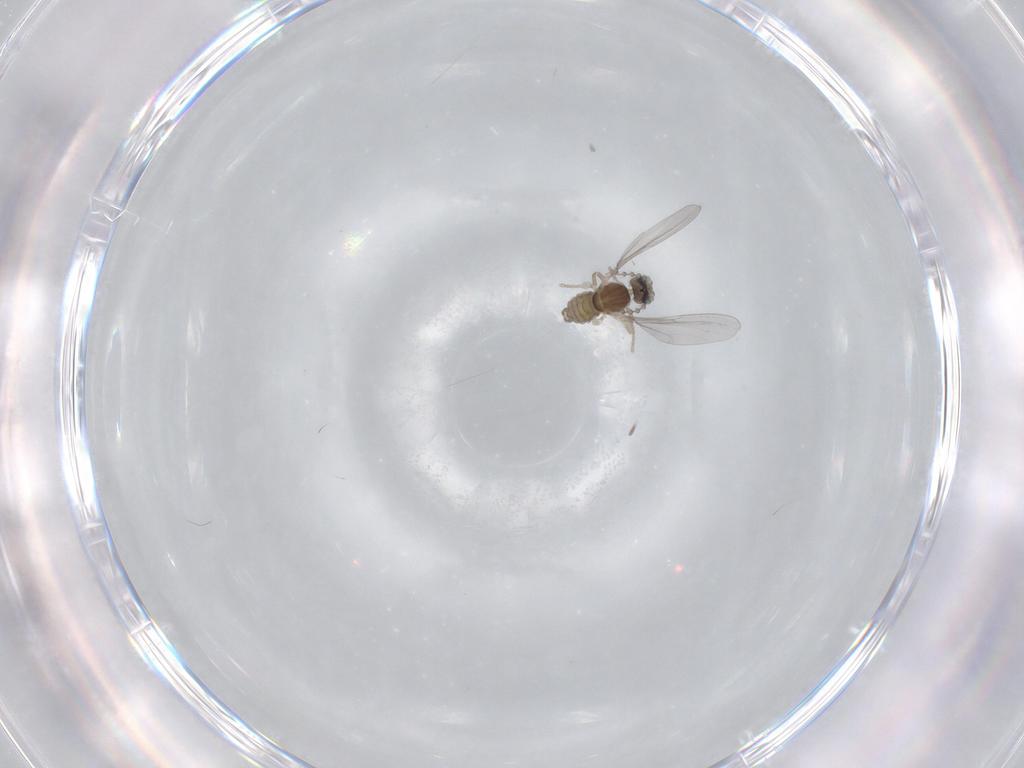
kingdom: Animalia
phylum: Arthropoda
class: Insecta
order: Diptera
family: Cecidomyiidae
